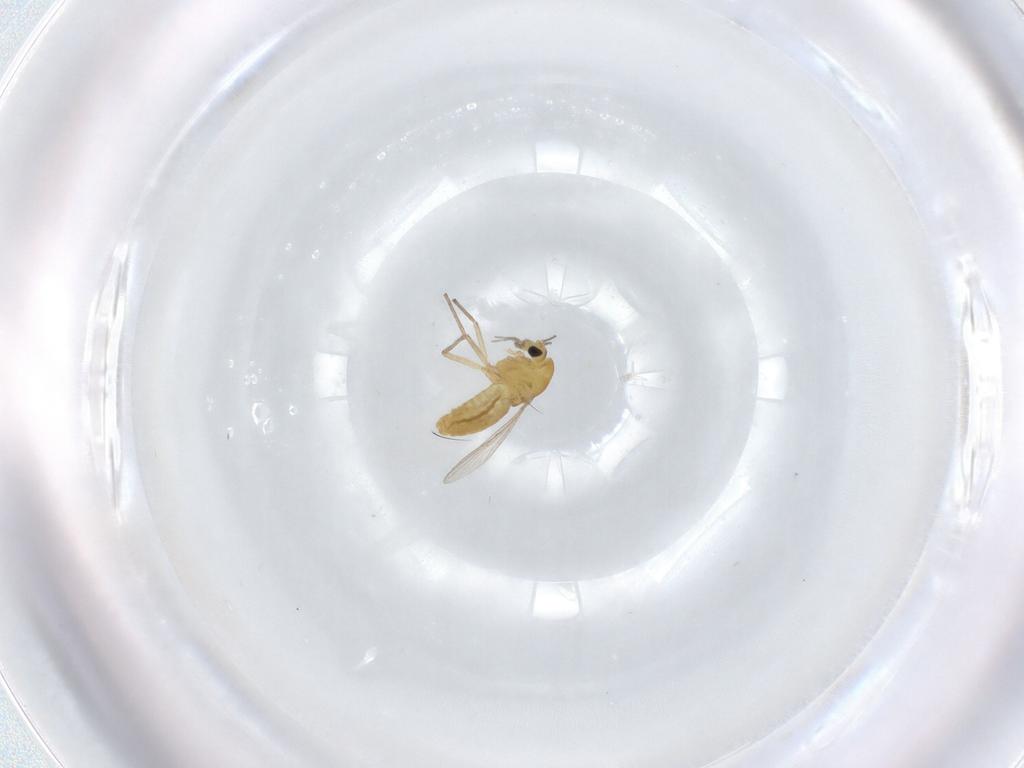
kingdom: Animalia
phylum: Arthropoda
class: Insecta
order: Diptera
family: Chironomidae
